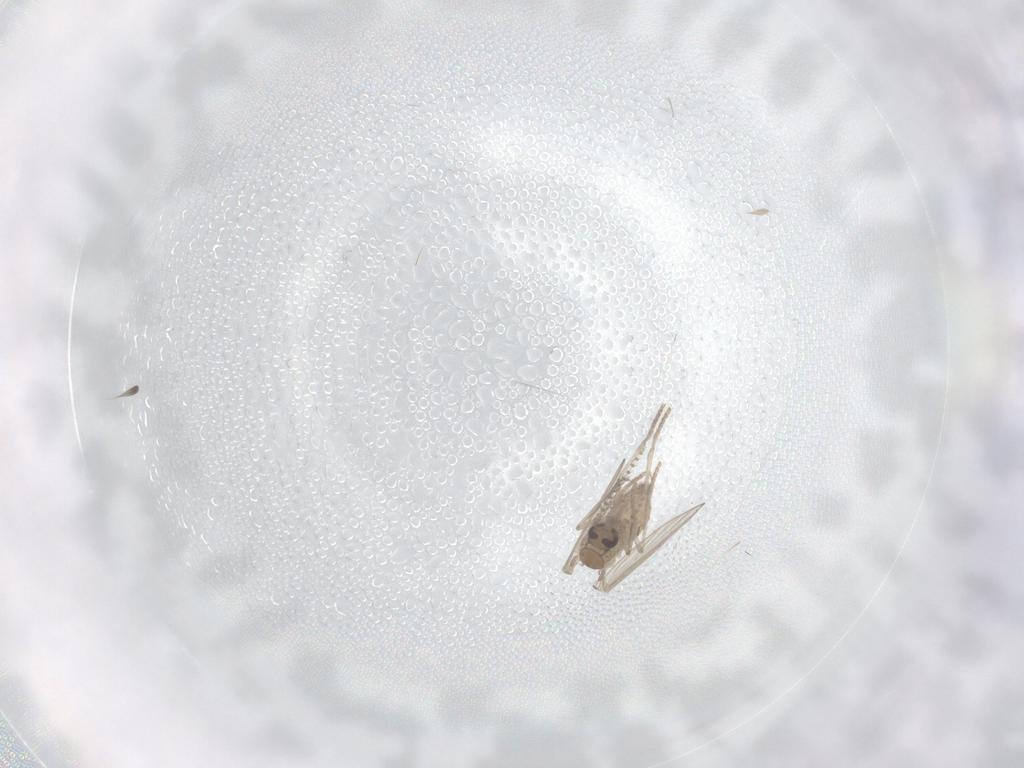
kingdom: Animalia
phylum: Arthropoda
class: Insecta
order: Diptera
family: Psychodidae
